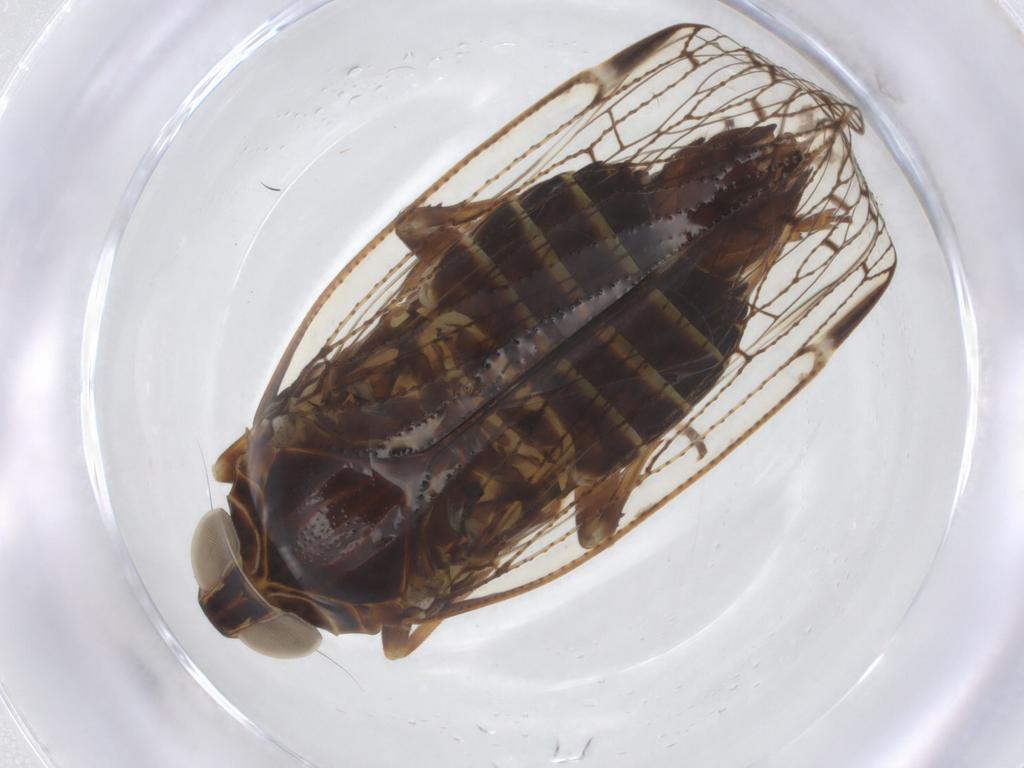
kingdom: Animalia
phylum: Arthropoda
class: Insecta
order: Hemiptera
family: Cixiidae
